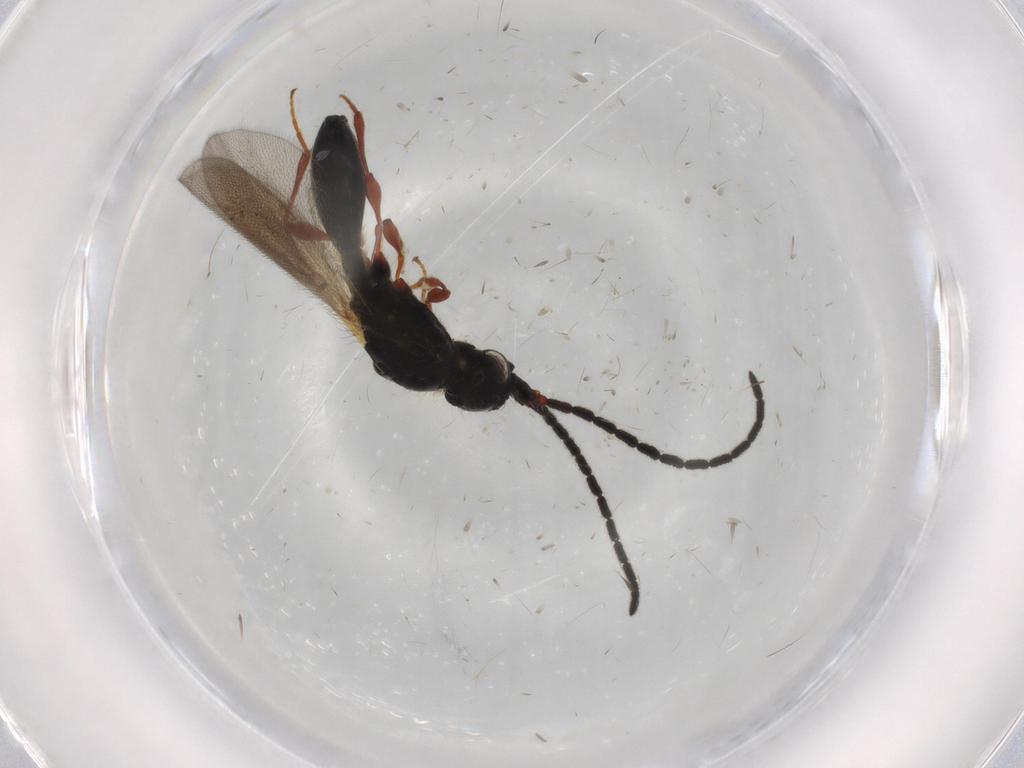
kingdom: Animalia
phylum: Arthropoda
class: Insecta
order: Hymenoptera
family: Diapriidae
